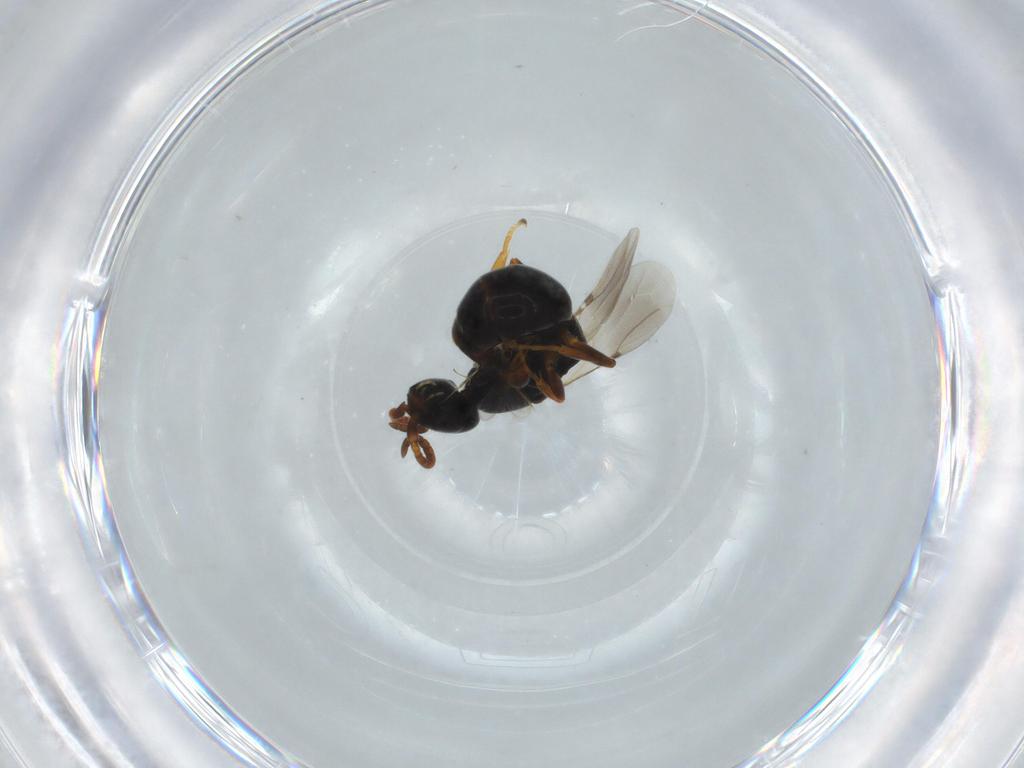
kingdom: Animalia
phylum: Arthropoda
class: Insecta
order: Hymenoptera
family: Bethylidae
